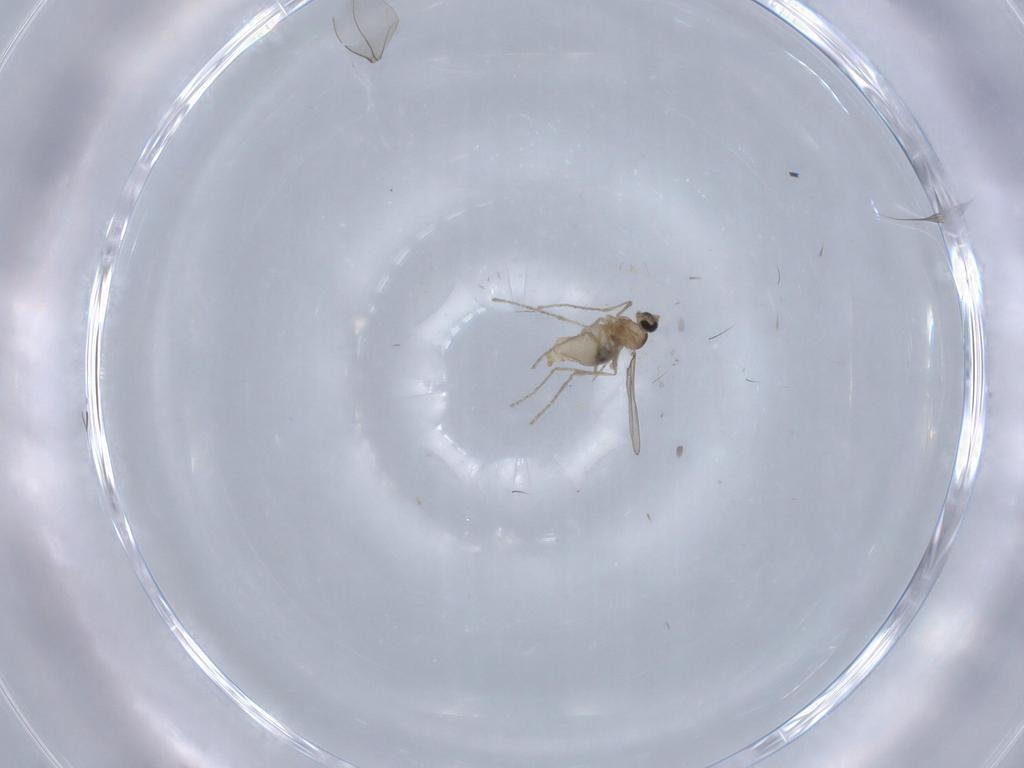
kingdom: Animalia
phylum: Arthropoda
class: Insecta
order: Diptera
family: Cecidomyiidae
